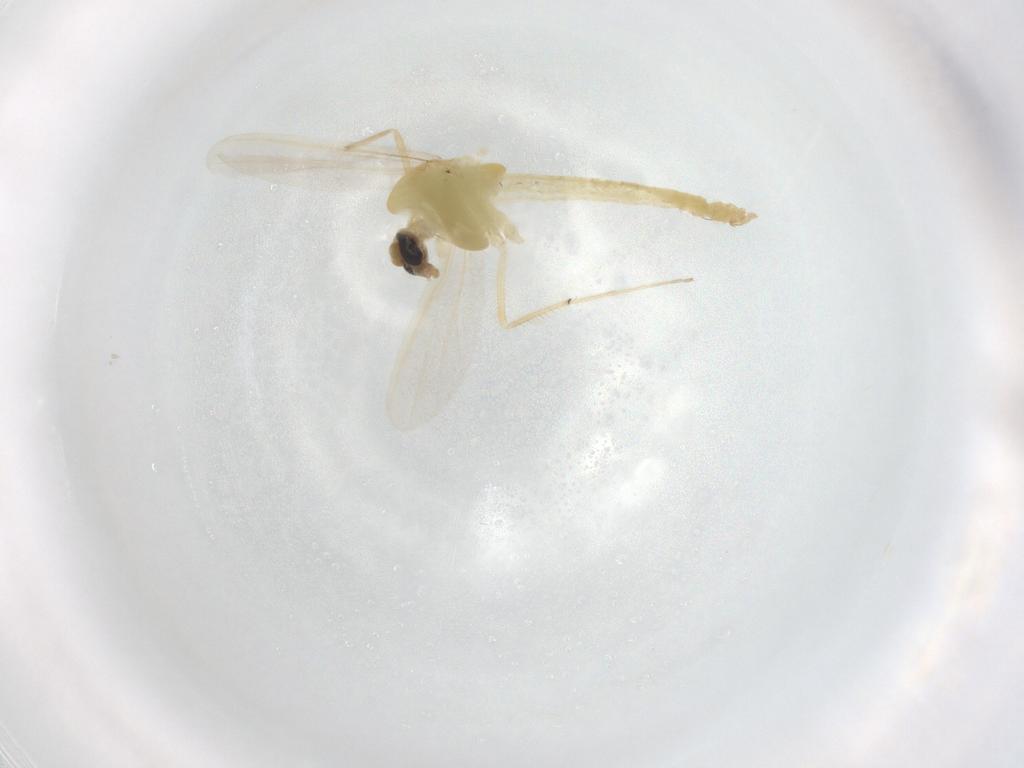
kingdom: Animalia
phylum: Arthropoda
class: Insecta
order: Diptera
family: Chironomidae
